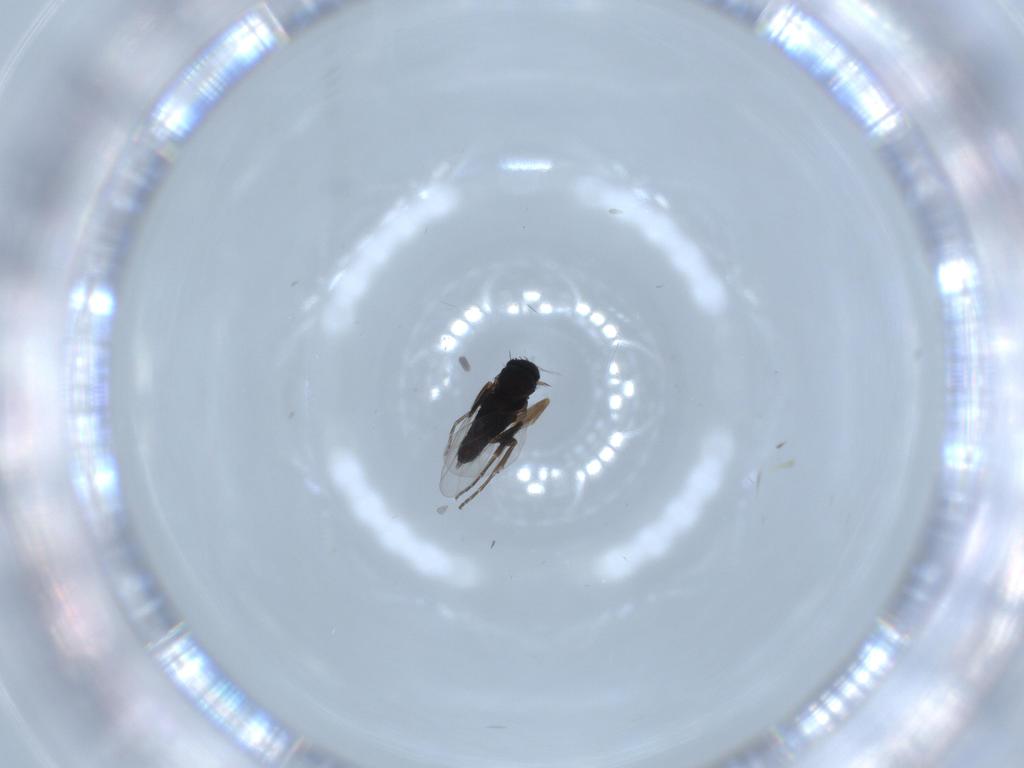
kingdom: Animalia
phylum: Arthropoda
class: Insecta
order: Diptera
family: Phoridae
